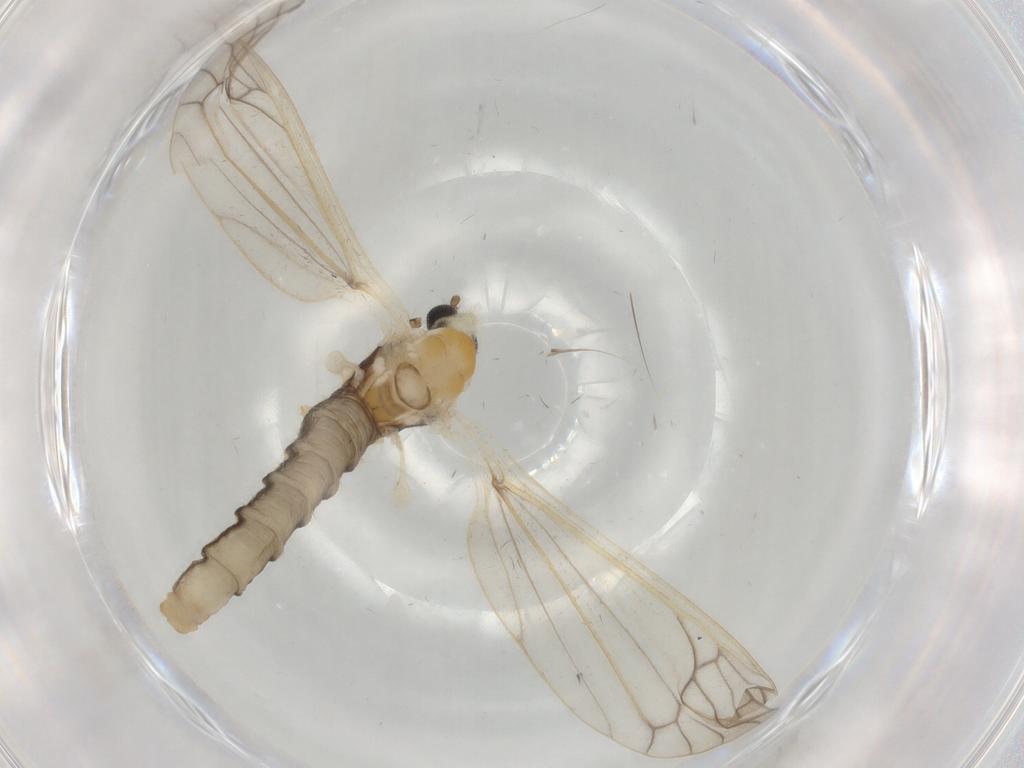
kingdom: Animalia
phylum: Arthropoda
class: Insecta
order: Diptera
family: Phoridae
